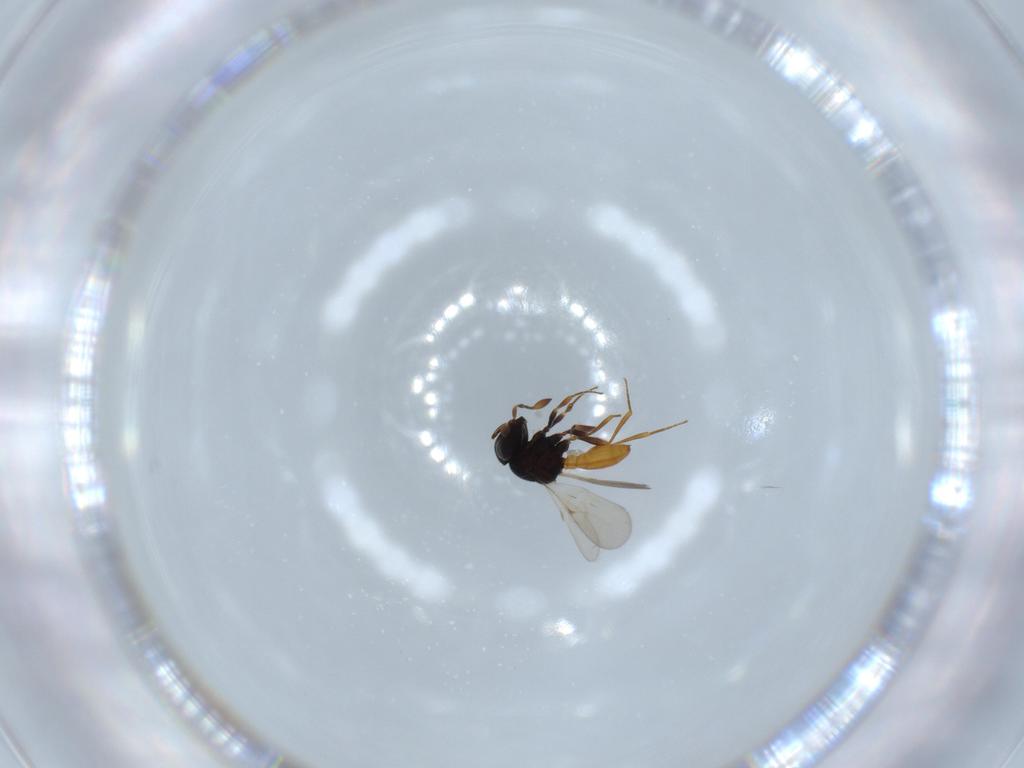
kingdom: Animalia
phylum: Arthropoda
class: Insecta
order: Hymenoptera
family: Scelionidae
